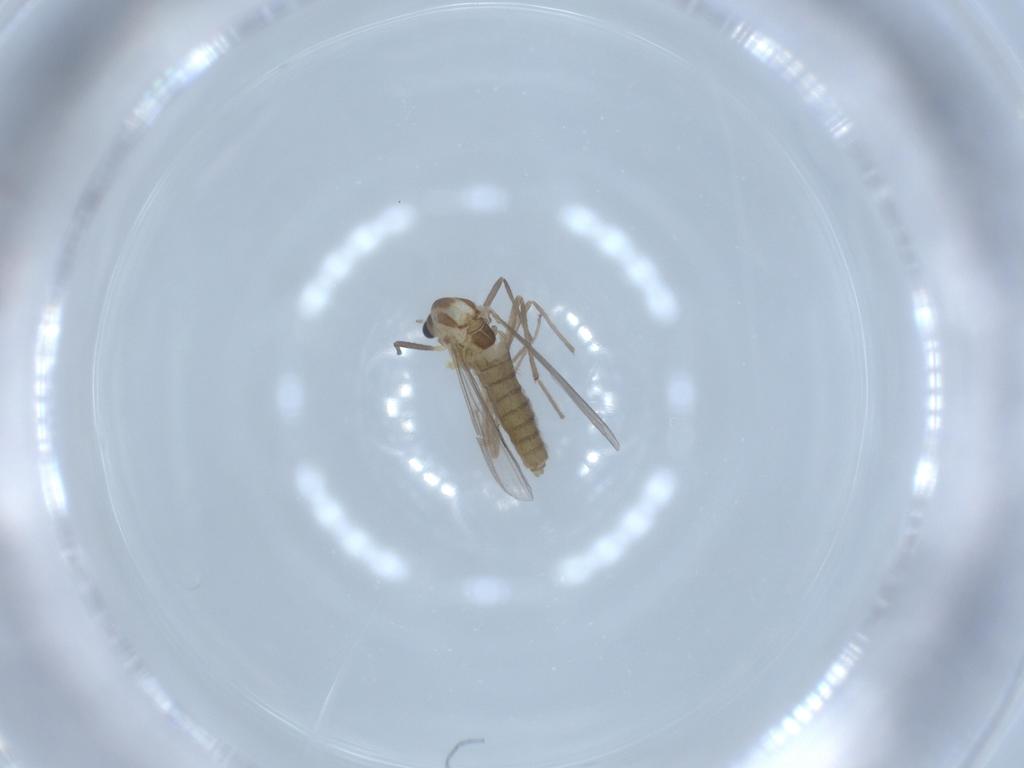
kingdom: Animalia
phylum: Arthropoda
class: Insecta
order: Diptera
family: Chironomidae
